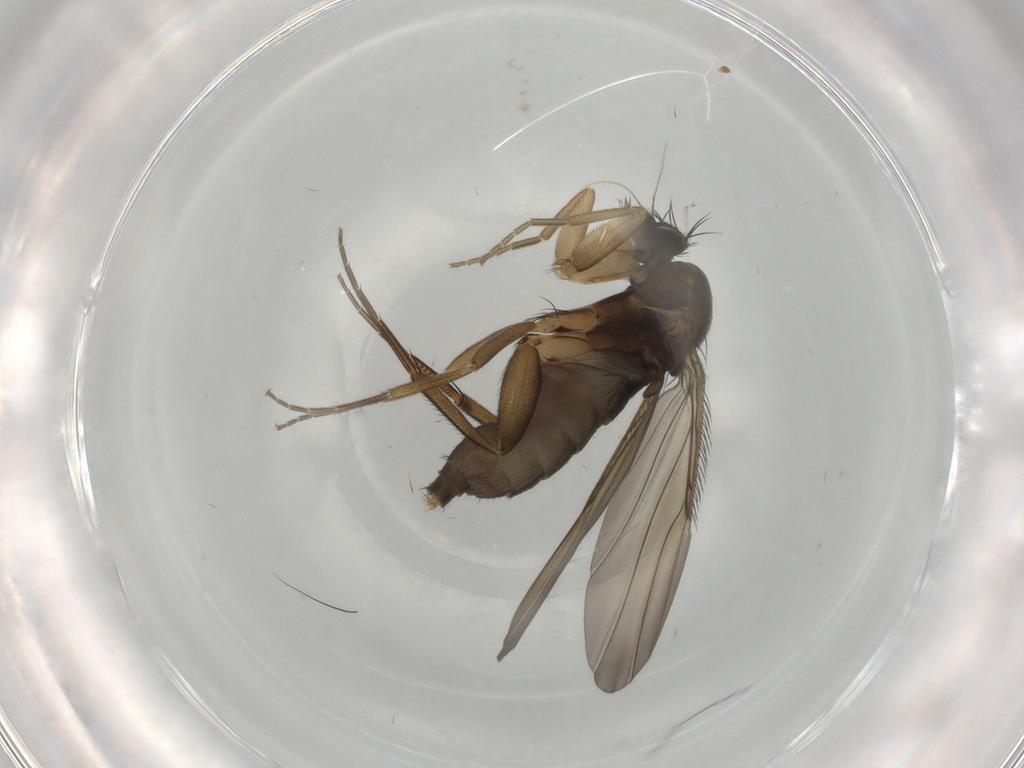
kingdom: Animalia
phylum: Arthropoda
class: Insecta
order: Diptera
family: Phoridae
